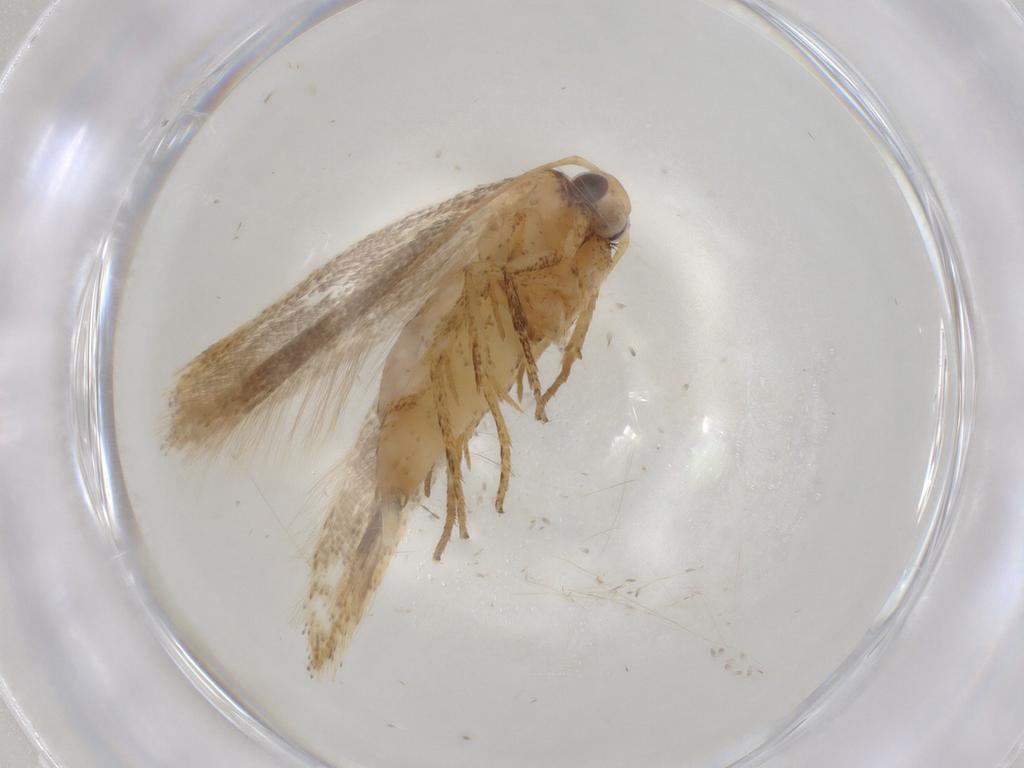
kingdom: Animalia
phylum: Arthropoda
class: Insecta
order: Lepidoptera
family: Gelechiidae
